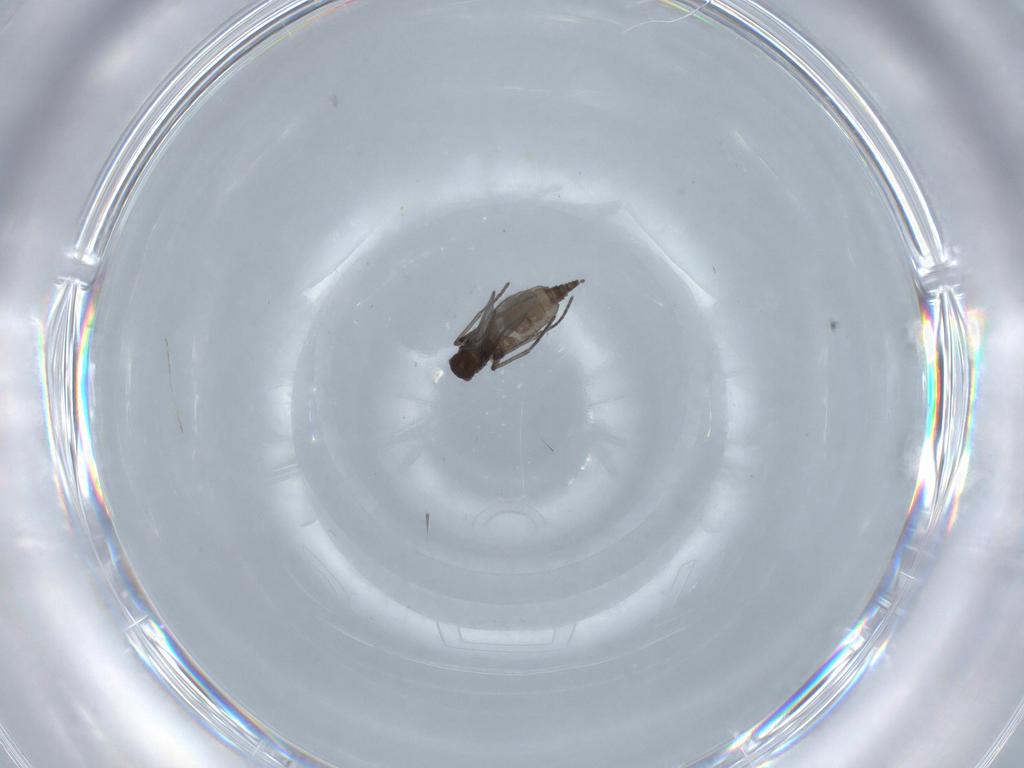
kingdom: Animalia
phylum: Arthropoda
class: Insecta
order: Diptera
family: Cecidomyiidae
